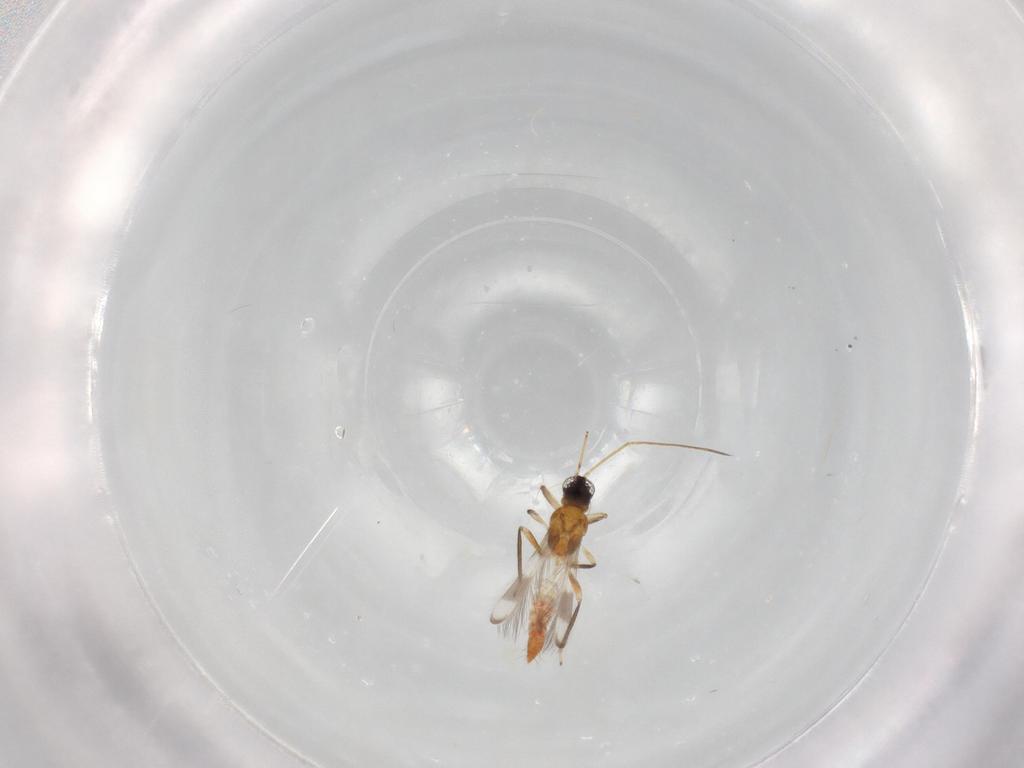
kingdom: Animalia
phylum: Arthropoda
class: Insecta
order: Thysanoptera
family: Aeolothripidae
